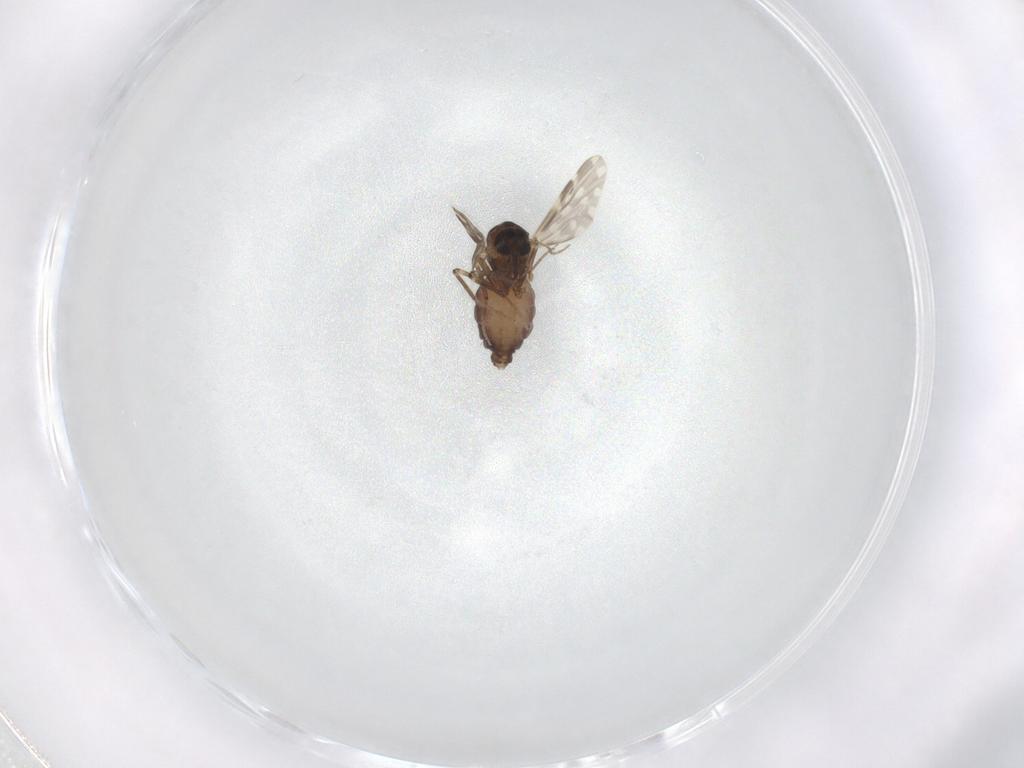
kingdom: Animalia
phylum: Arthropoda
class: Insecta
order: Diptera
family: Ceratopogonidae
